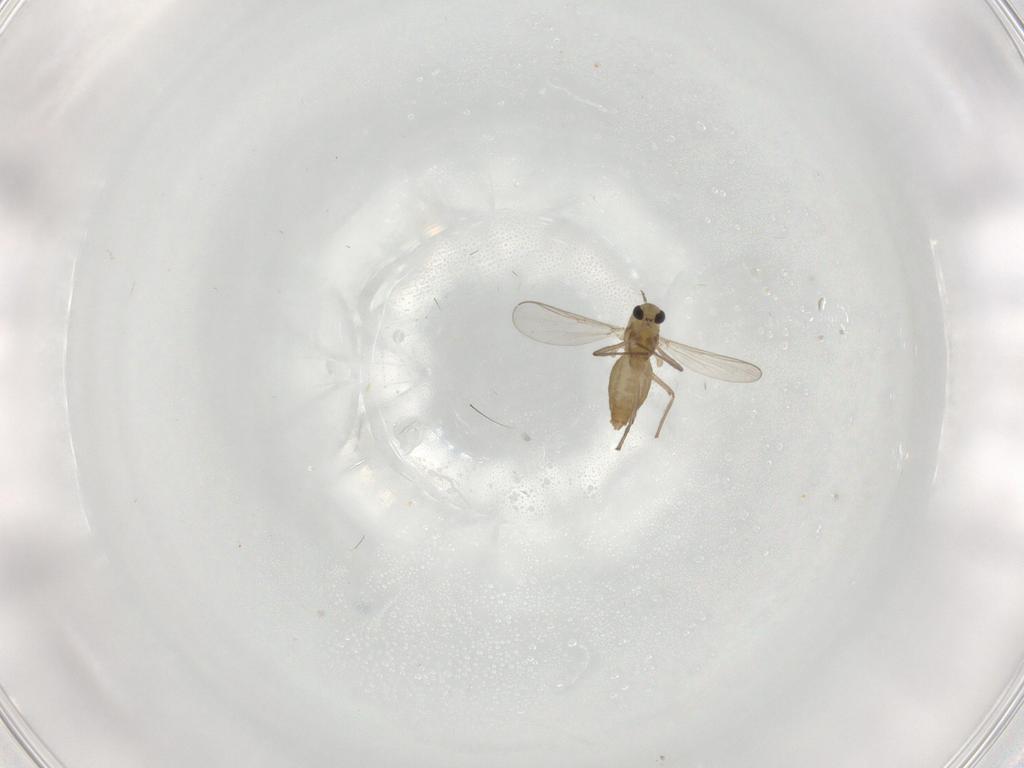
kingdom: Animalia
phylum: Arthropoda
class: Insecta
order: Diptera
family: Chironomidae
